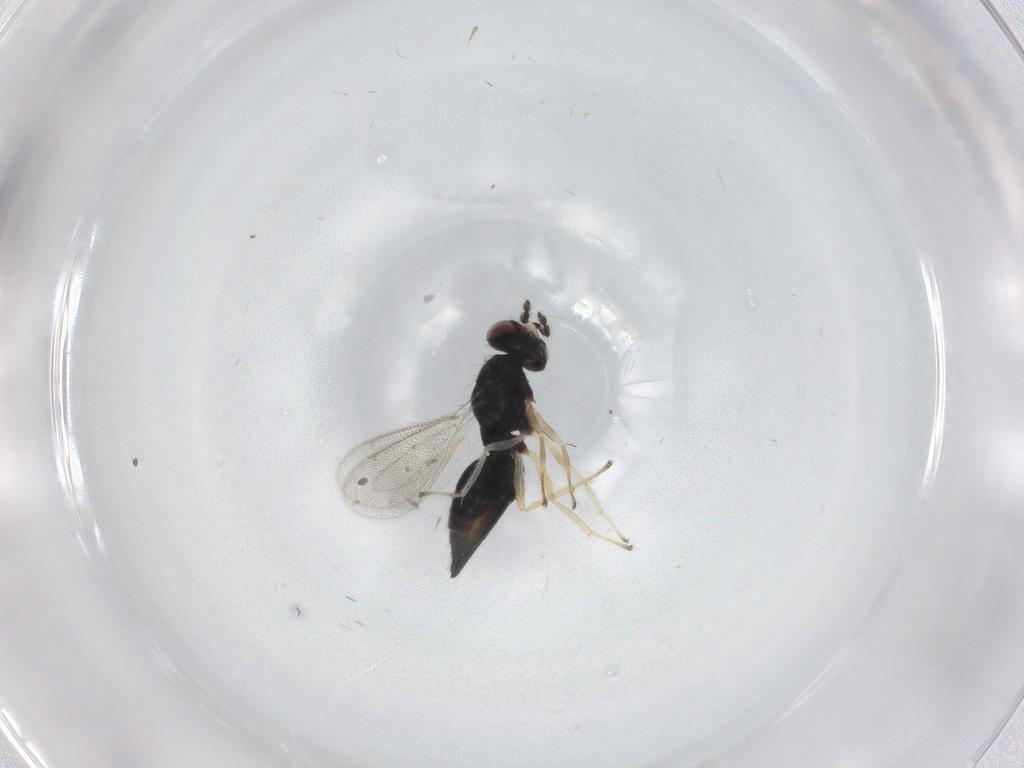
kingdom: Animalia
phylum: Arthropoda
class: Insecta
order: Hymenoptera
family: Eulophidae
